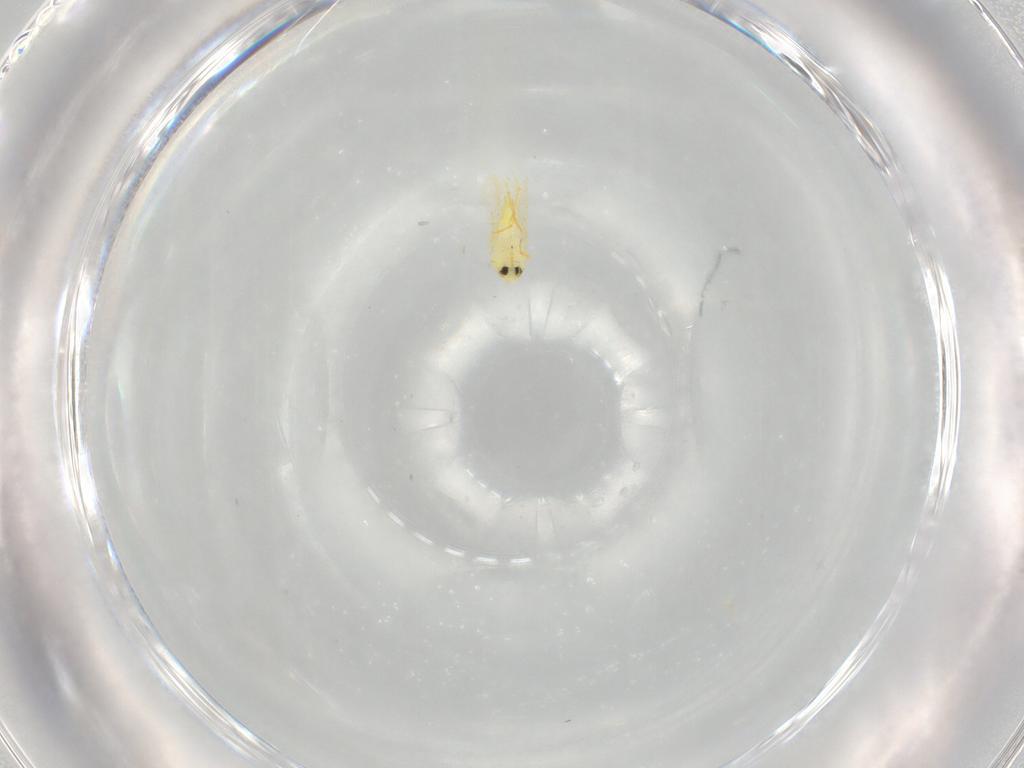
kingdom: Animalia
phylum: Arthropoda
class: Insecta
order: Hemiptera
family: Aleyrodidae
